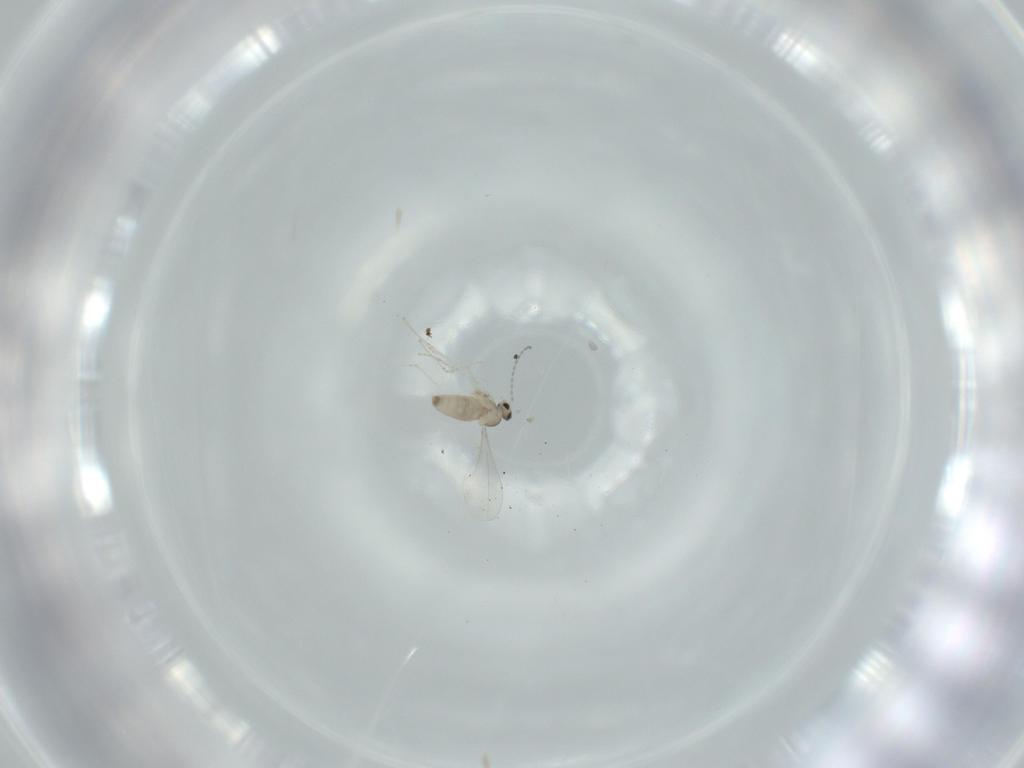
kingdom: Animalia
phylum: Arthropoda
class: Insecta
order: Diptera
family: Cecidomyiidae
